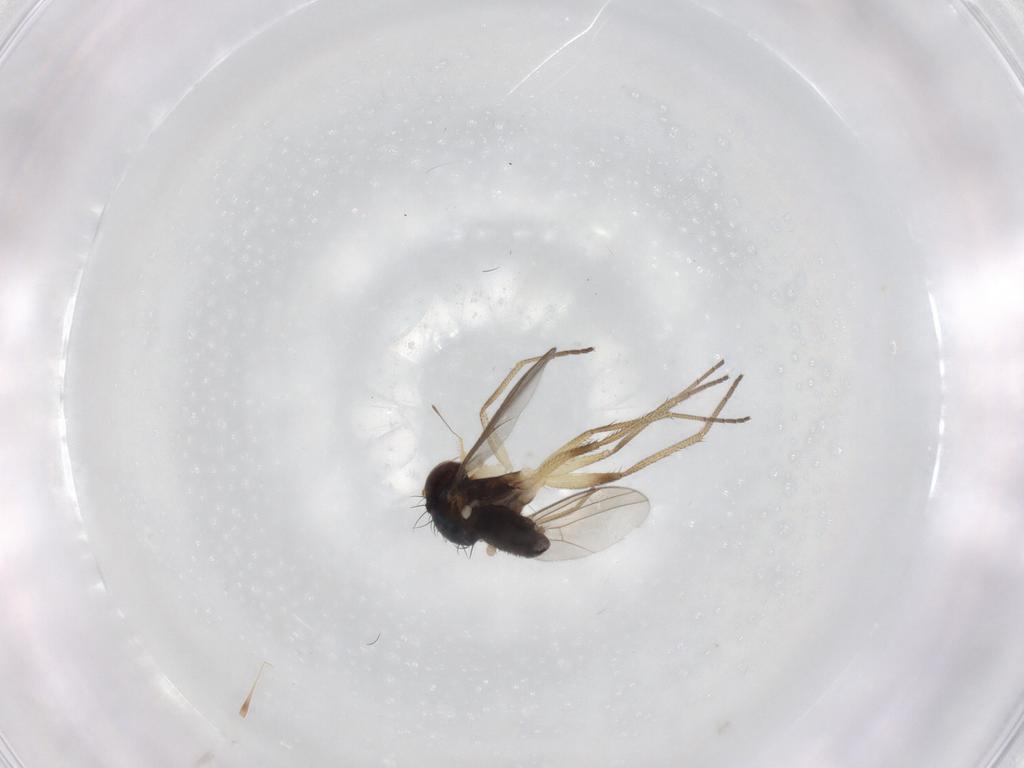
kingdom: Animalia
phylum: Arthropoda
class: Insecta
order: Diptera
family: Dolichopodidae
